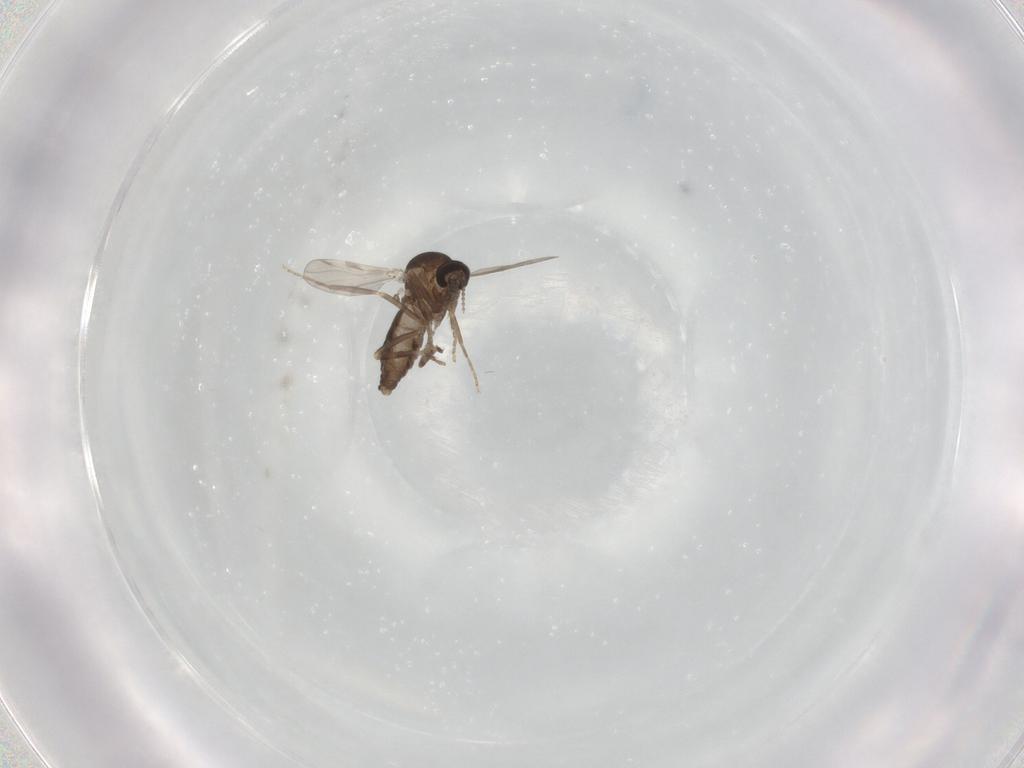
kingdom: Animalia
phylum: Arthropoda
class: Insecta
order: Diptera
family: Ceratopogonidae
